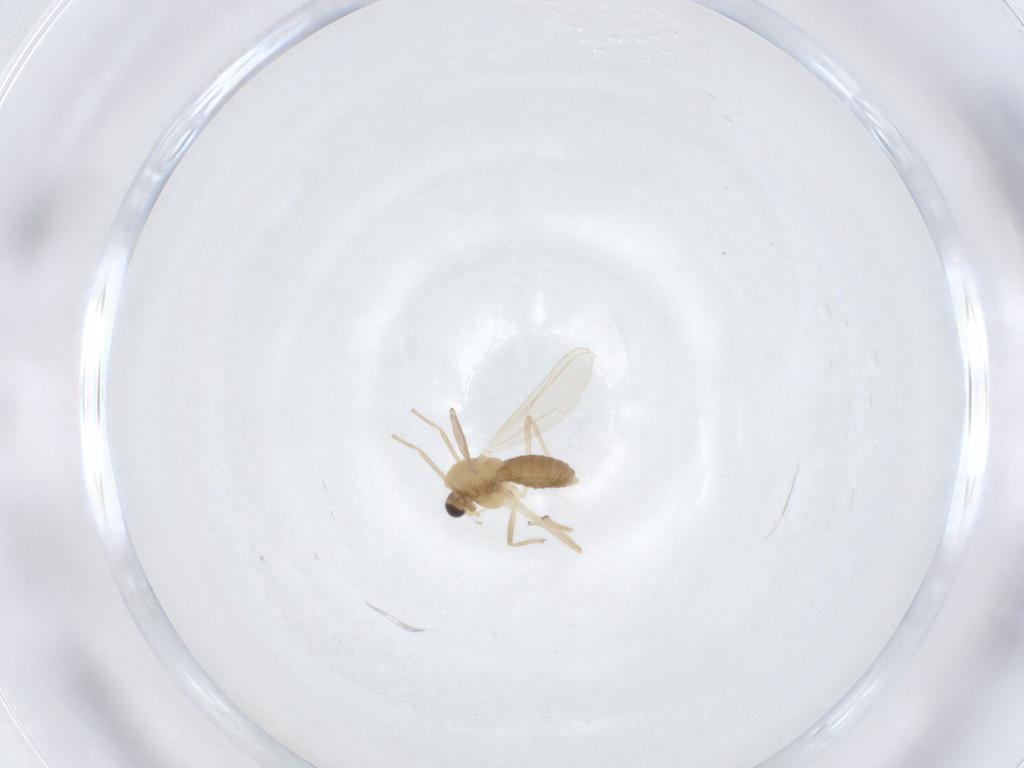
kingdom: Animalia
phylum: Arthropoda
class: Insecta
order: Diptera
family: Chironomidae
